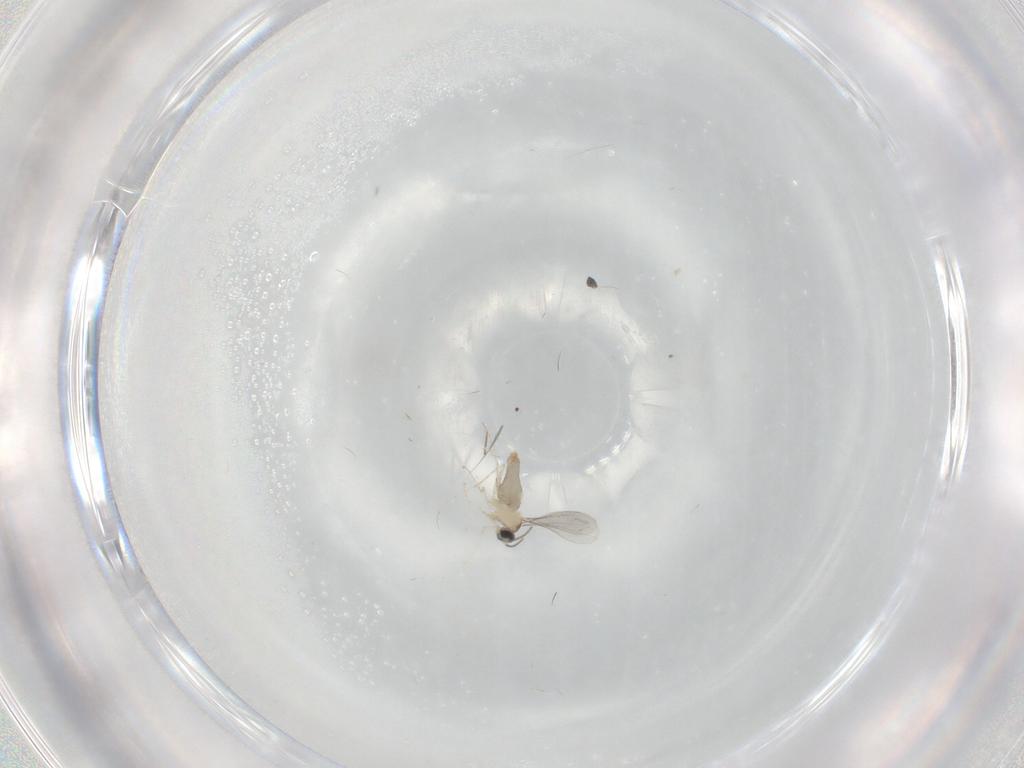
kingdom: Animalia
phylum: Arthropoda
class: Insecta
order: Diptera
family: Cecidomyiidae
